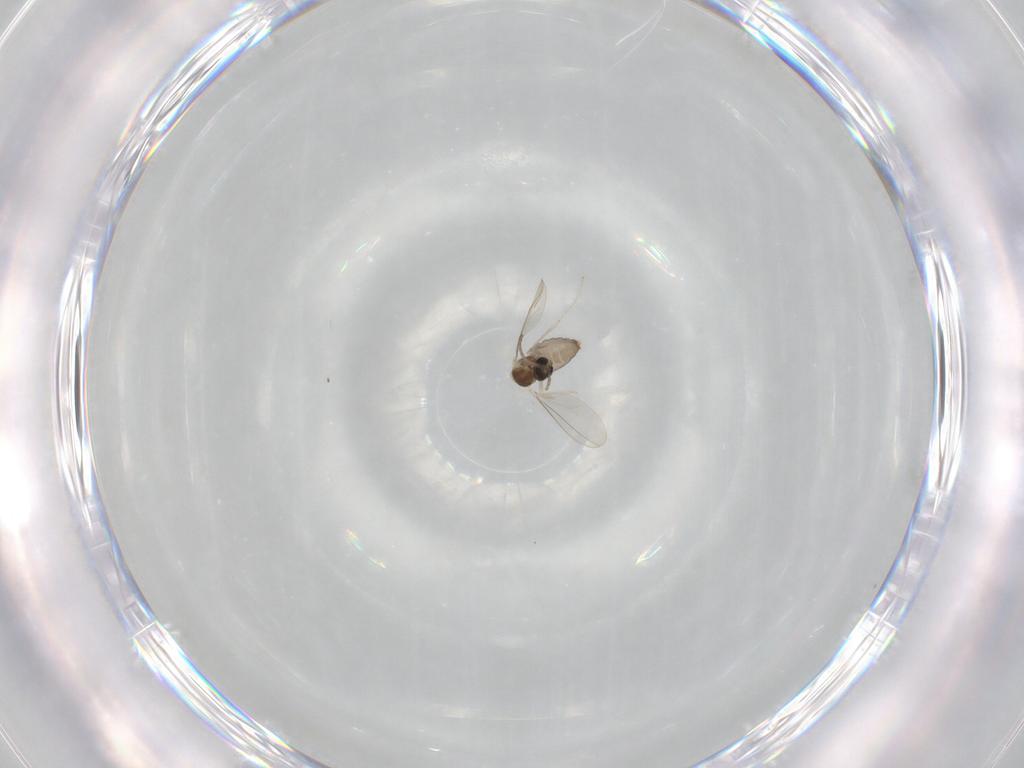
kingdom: Animalia
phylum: Arthropoda
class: Insecta
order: Diptera
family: Cecidomyiidae
